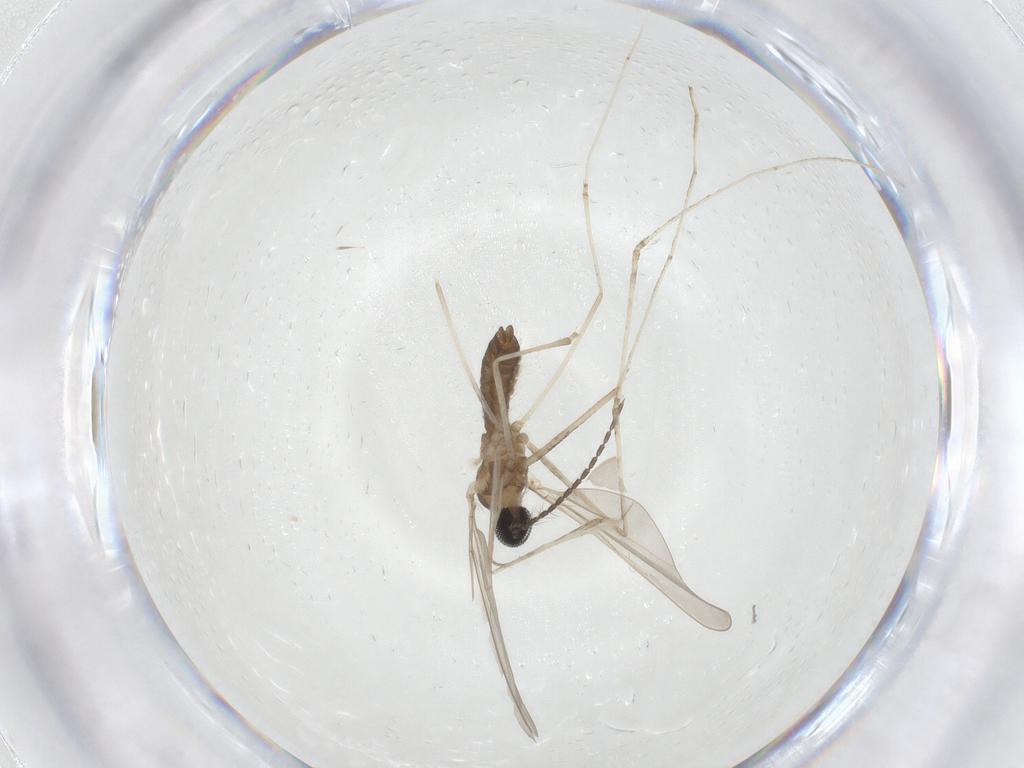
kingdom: Animalia
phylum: Arthropoda
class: Insecta
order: Diptera
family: Cecidomyiidae
